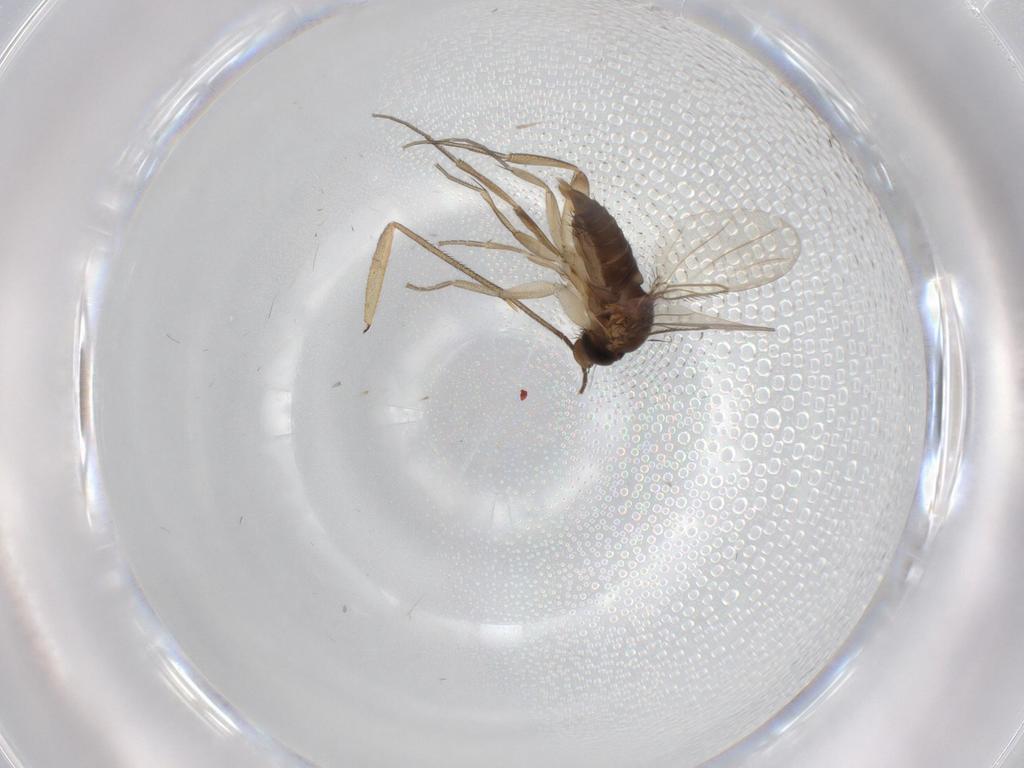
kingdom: Animalia
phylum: Arthropoda
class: Insecta
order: Diptera
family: Phoridae
